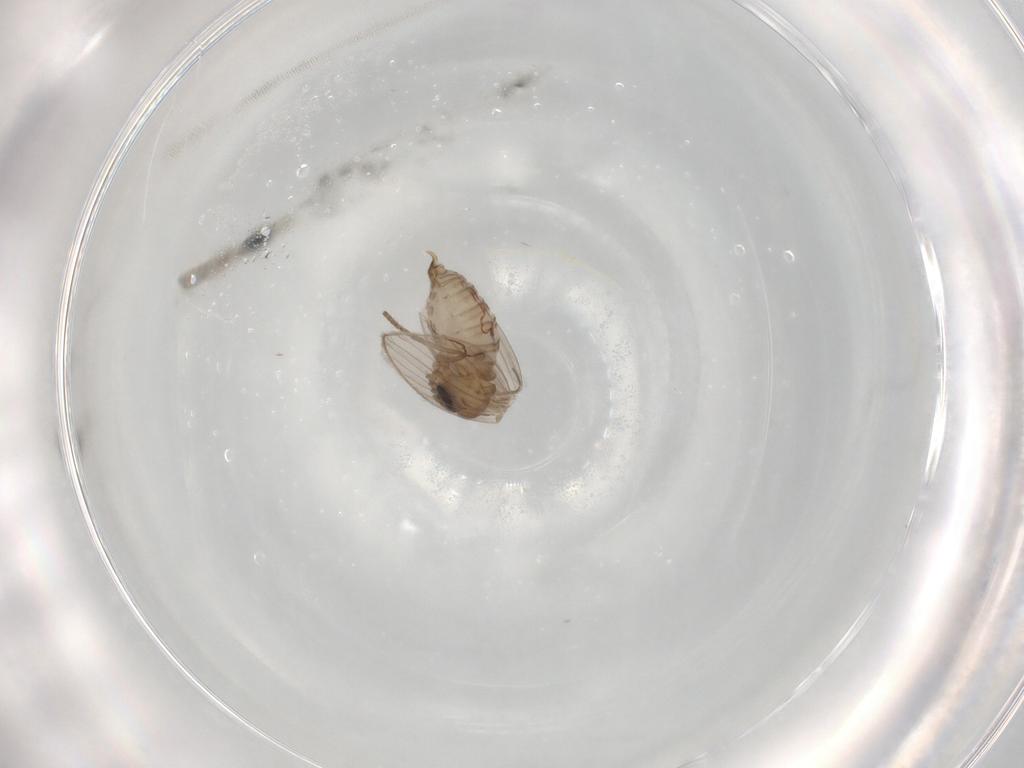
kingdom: Animalia
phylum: Arthropoda
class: Insecta
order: Diptera
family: Cecidomyiidae
